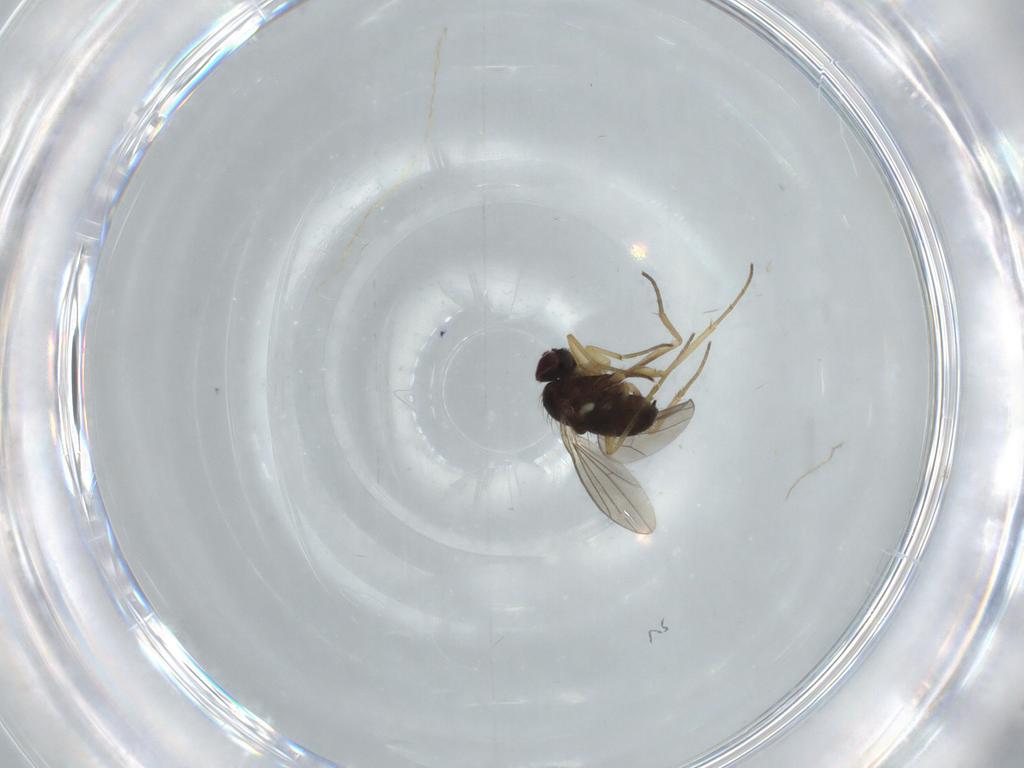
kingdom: Animalia
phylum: Arthropoda
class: Insecta
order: Diptera
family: Dolichopodidae
